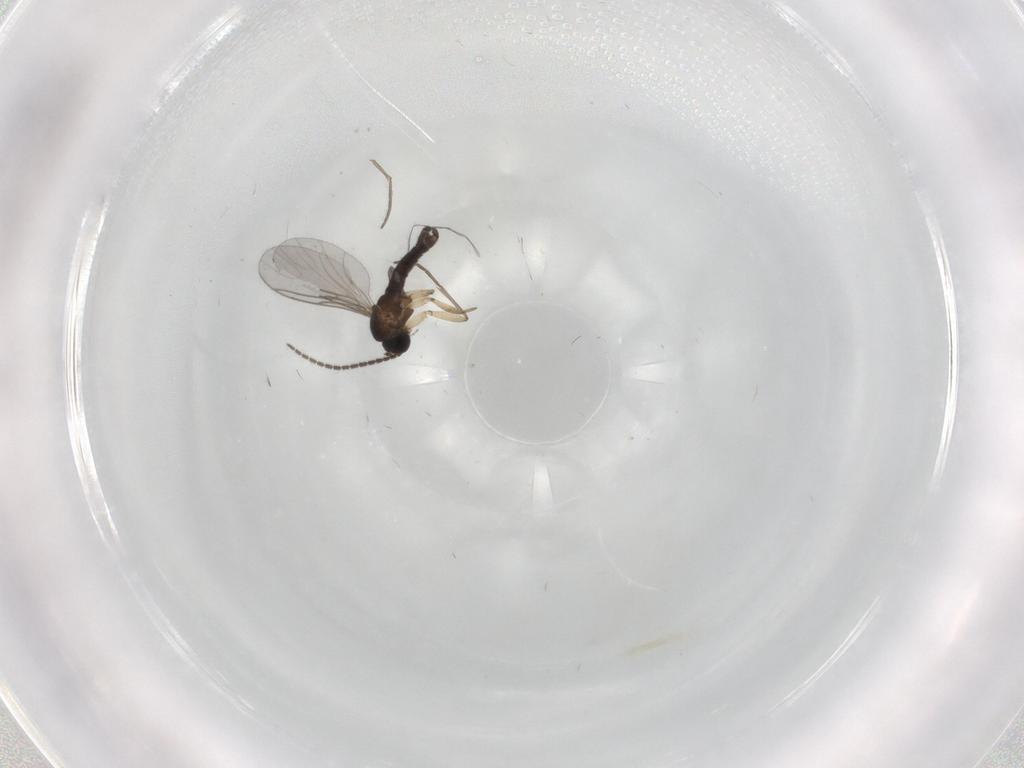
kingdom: Animalia
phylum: Arthropoda
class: Insecta
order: Diptera
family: Sciaridae
